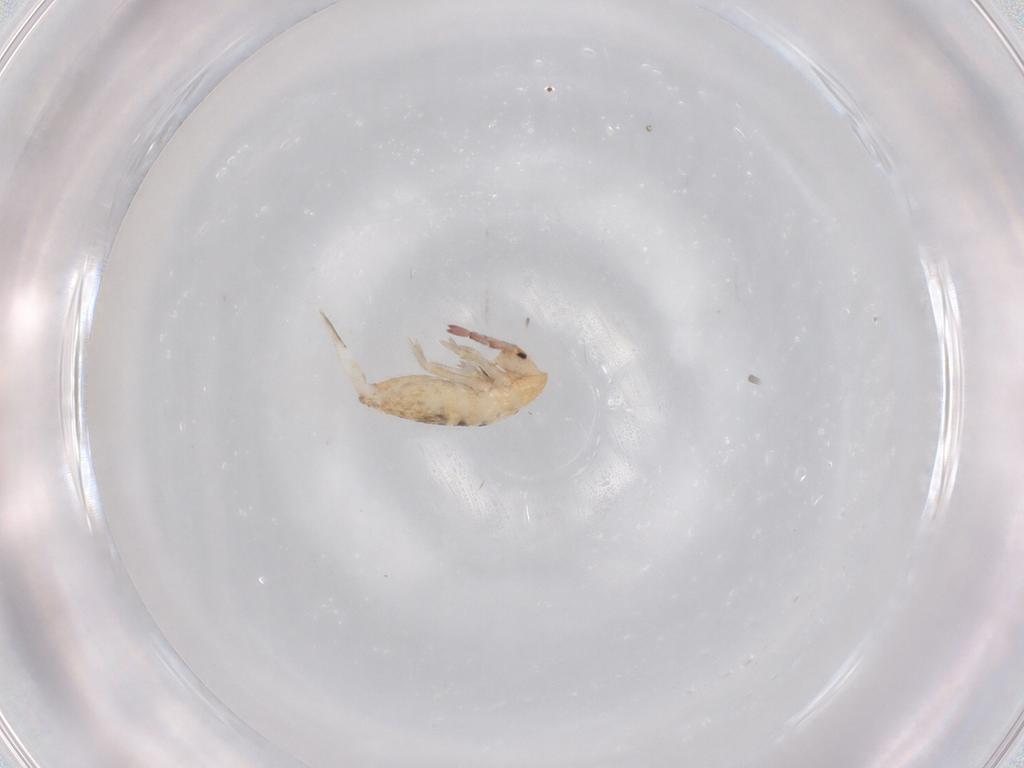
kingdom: Animalia
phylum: Arthropoda
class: Collembola
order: Entomobryomorpha
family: Entomobryidae
